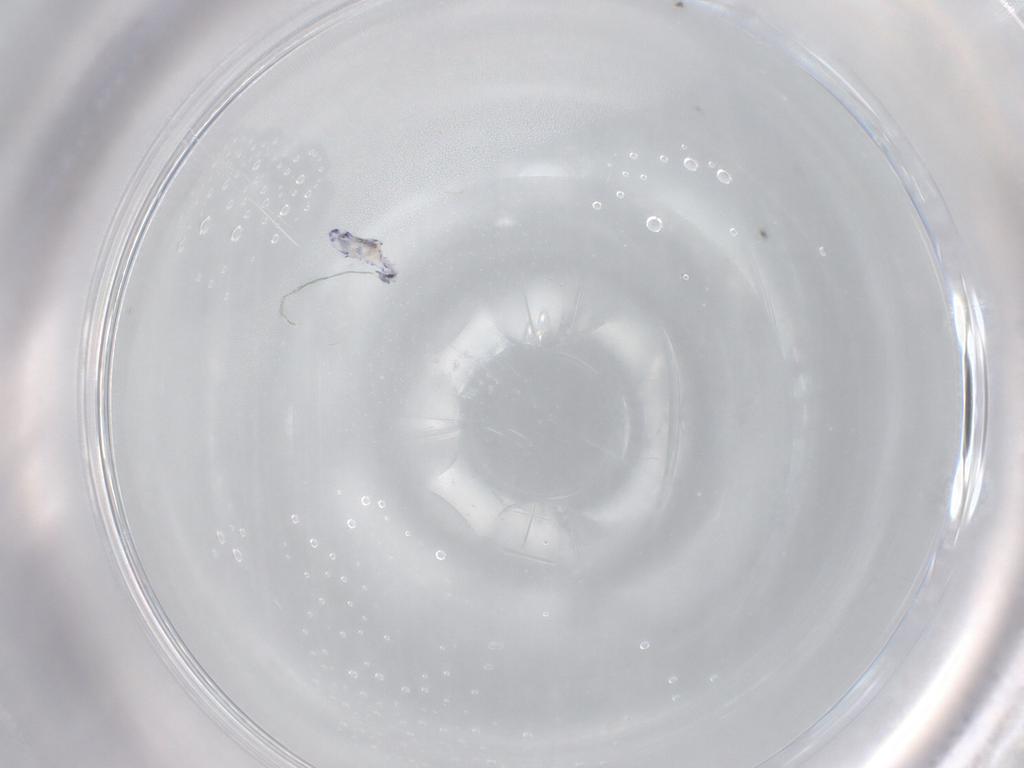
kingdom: Animalia
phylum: Arthropoda
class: Collembola
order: Entomobryomorpha
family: Entomobryidae
